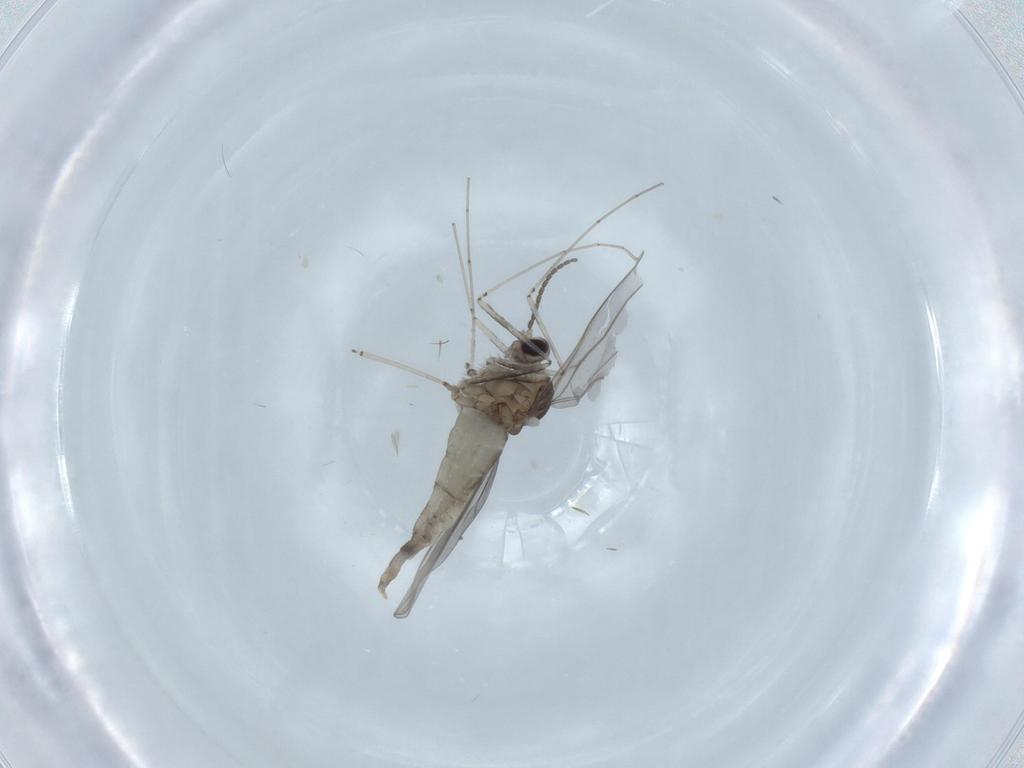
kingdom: Animalia
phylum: Arthropoda
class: Insecta
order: Diptera
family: Cecidomyiidae
